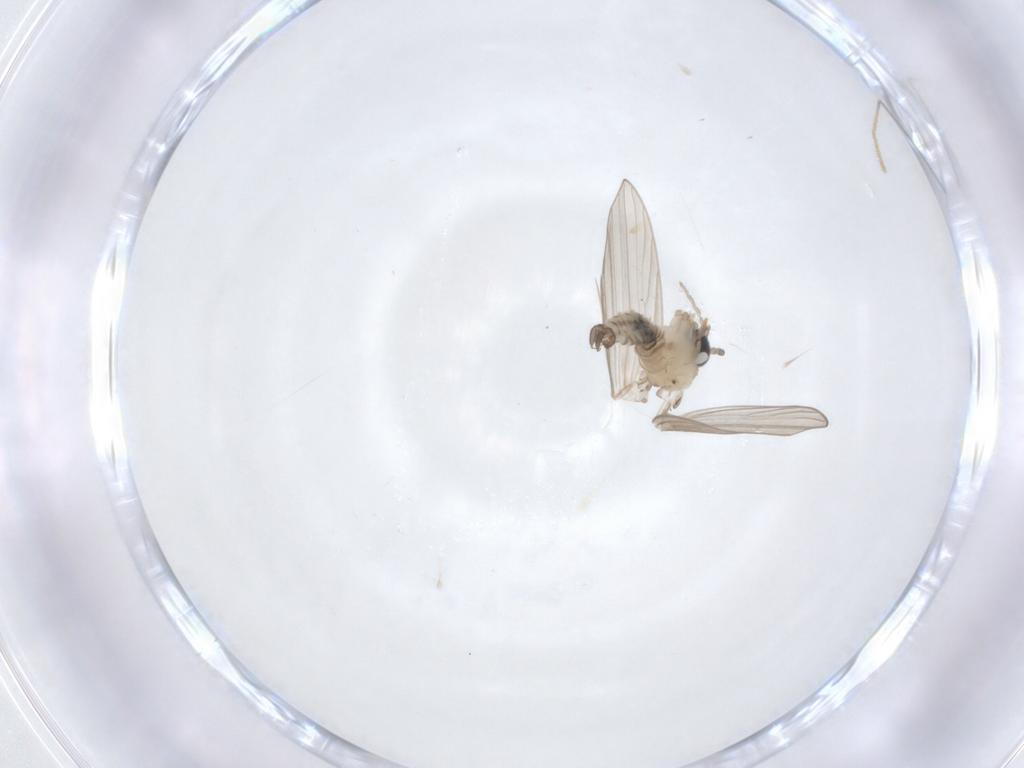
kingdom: Animalia
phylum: Arthropoda
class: Insecta
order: Diptera
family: Psychodidae
